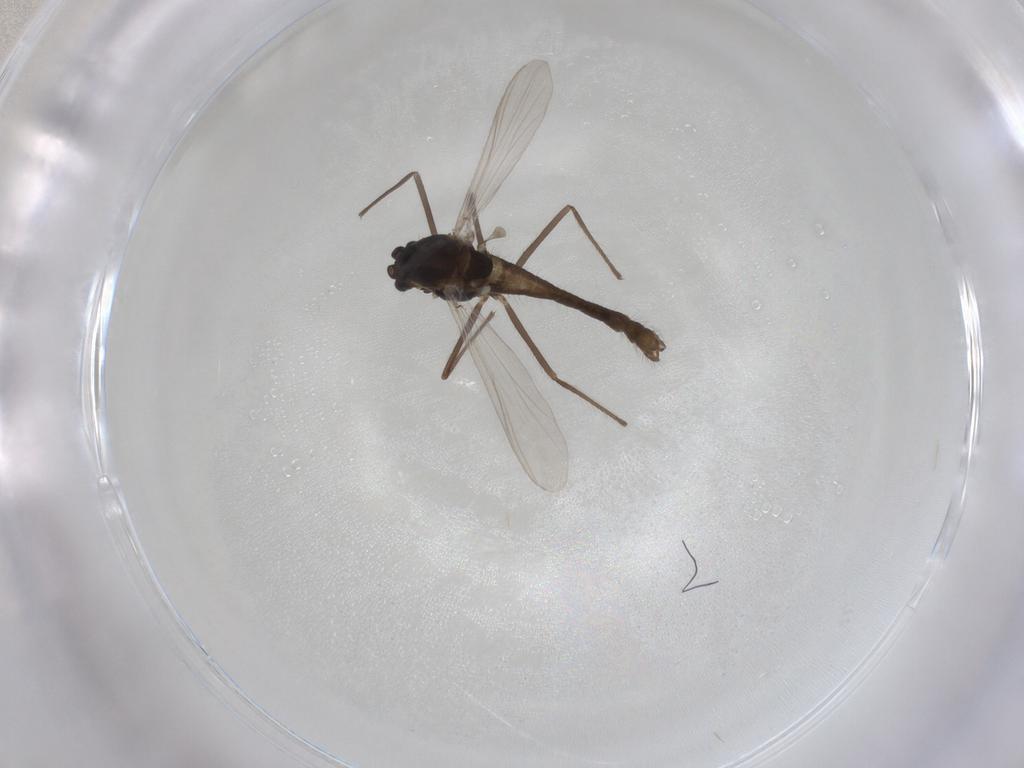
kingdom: Animalia
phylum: Arthropoda
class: Insecta
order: Diptera
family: Chironomidae
